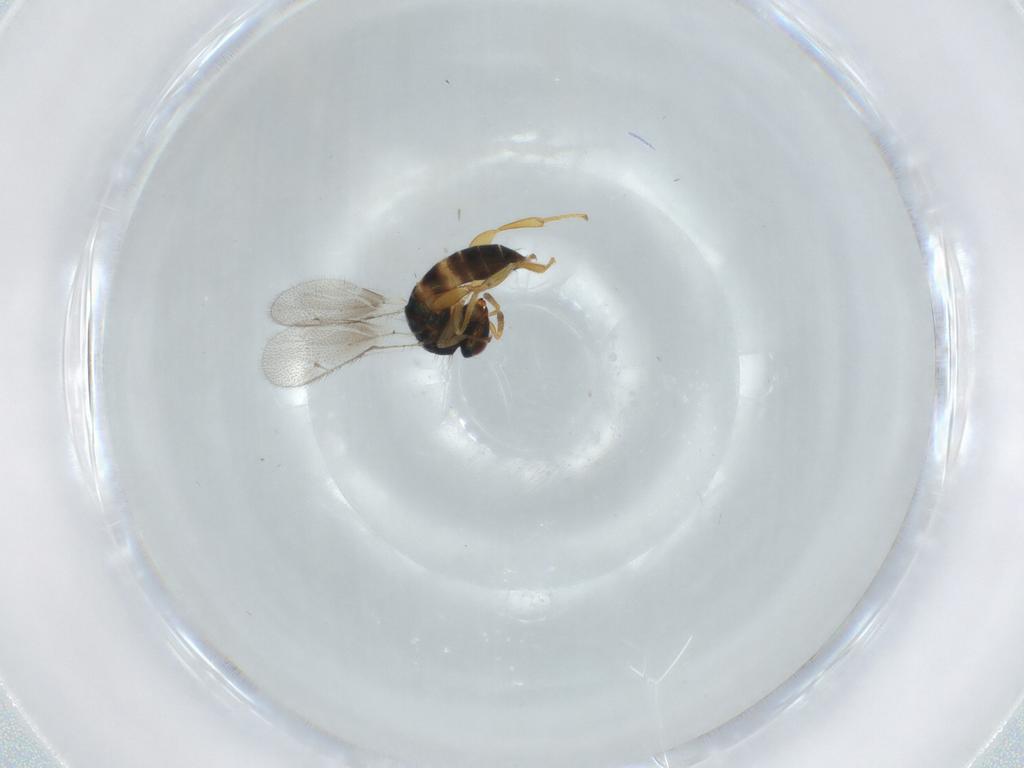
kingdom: Animalia
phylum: Arthropoda
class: Insecta
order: Hymenoptera
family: Torymidae
